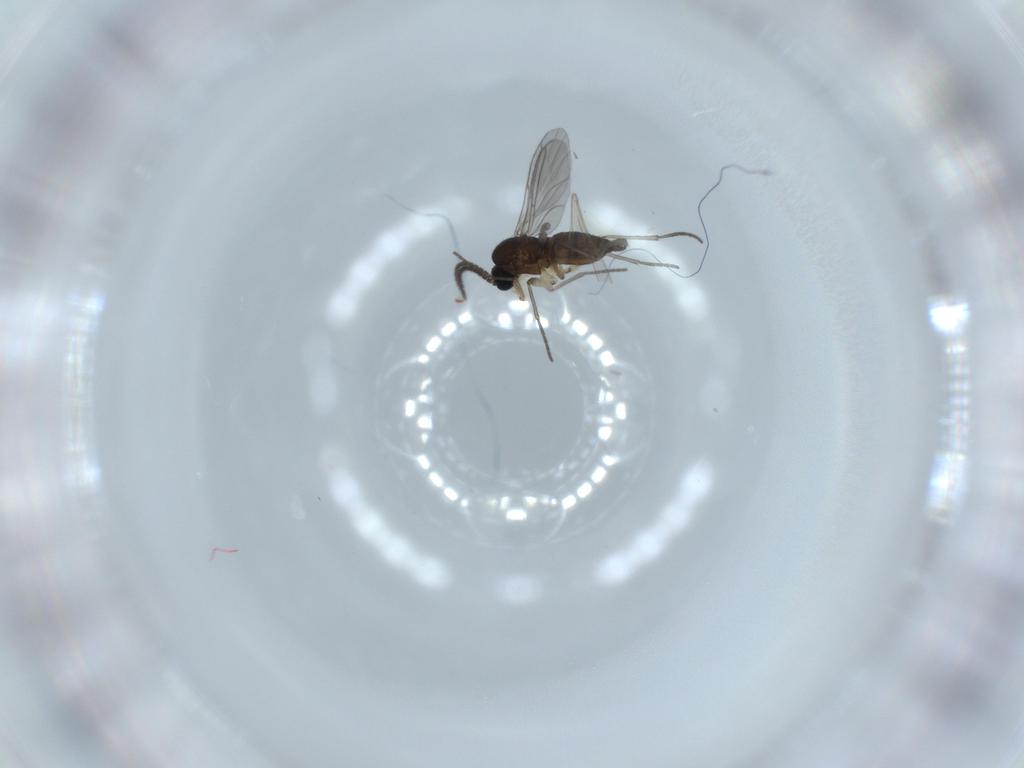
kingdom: Animalia
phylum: Arthropoda
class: Insecta
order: Diptera
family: Sciaridae
